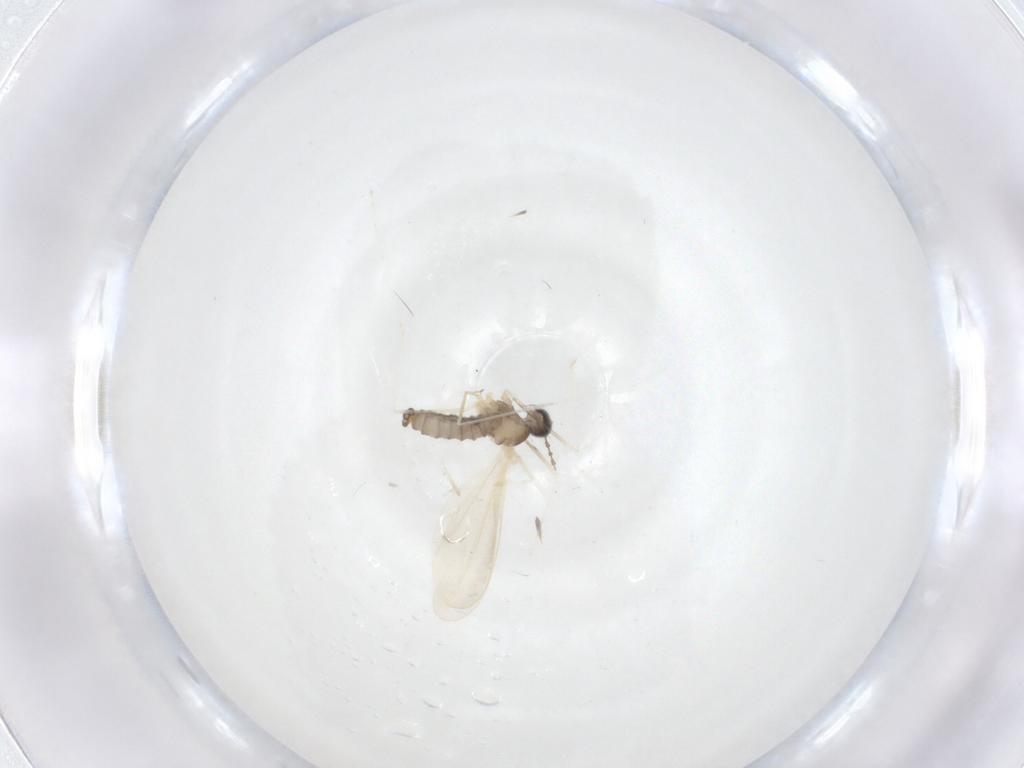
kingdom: Animalia
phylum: Arthropoda
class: Insecta
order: Diptera
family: Cecidomyiidae
